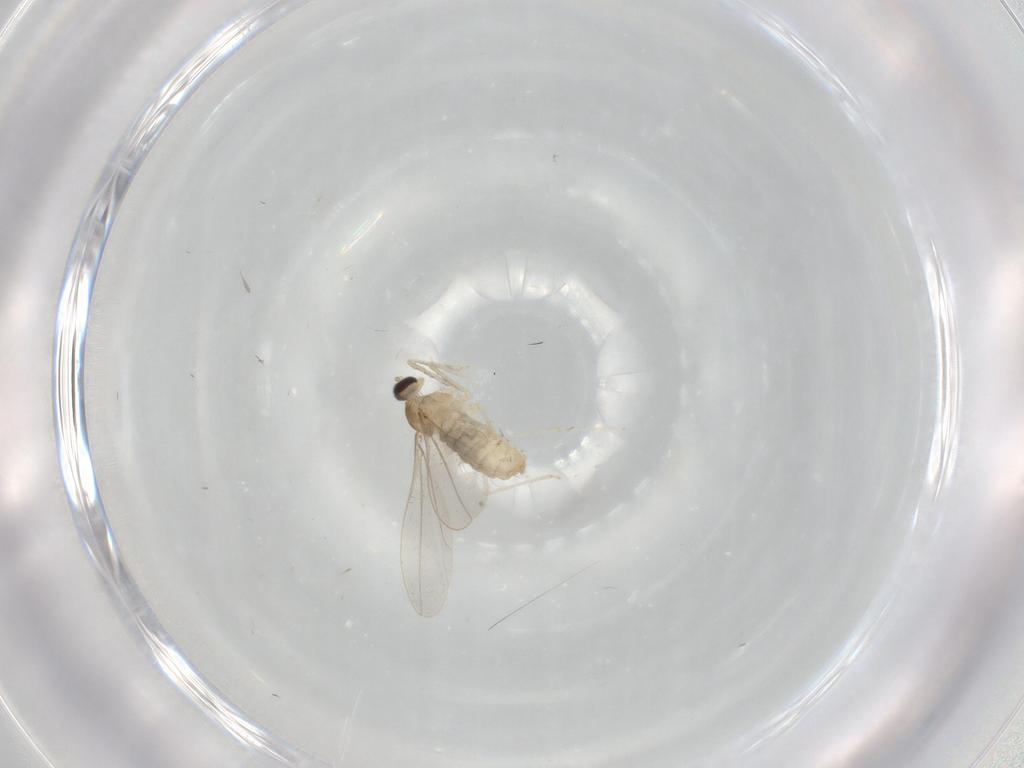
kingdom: Animalia
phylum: Arthropoda
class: Insecta
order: Diptera
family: Cecidomyiidae
